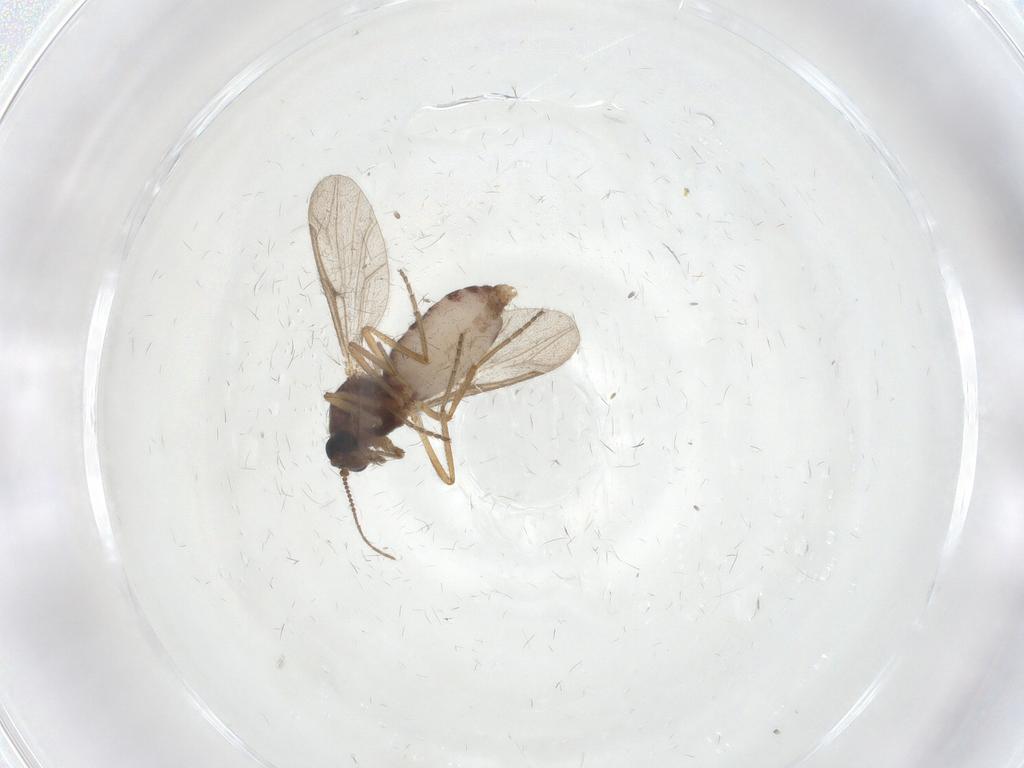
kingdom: Animalia
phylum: Arthropoda
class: Insecta
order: Diptera
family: Ceratopogonidae
